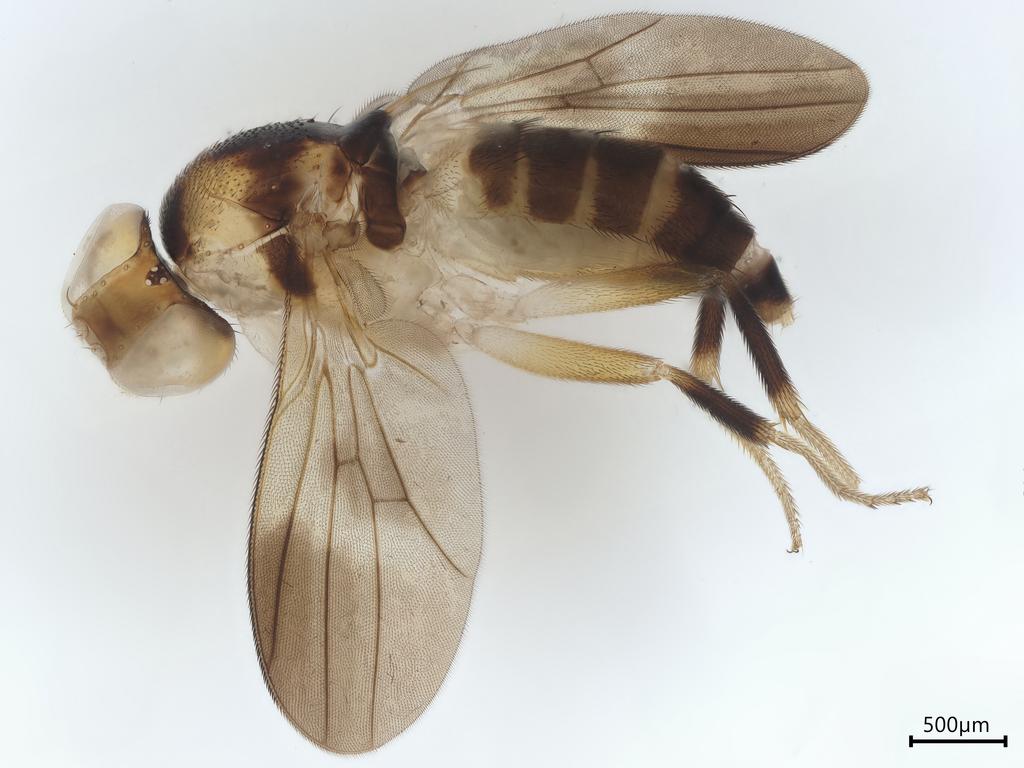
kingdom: Animalia
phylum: Arthropoda
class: Insecta
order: Diptera
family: Clusiidae
